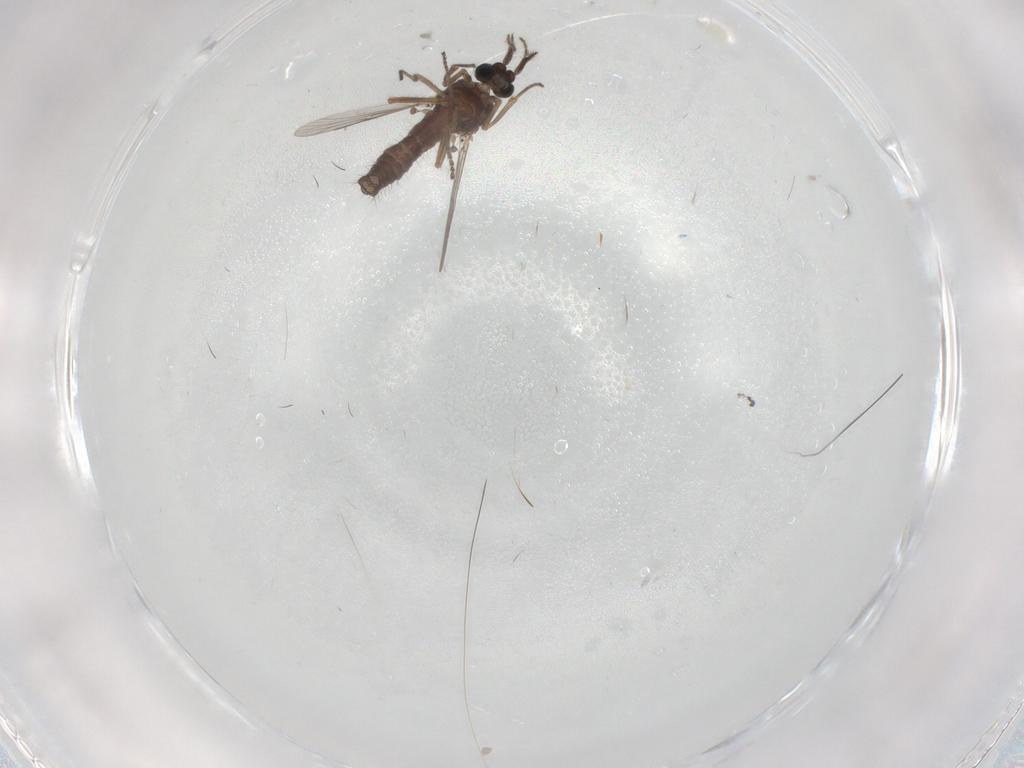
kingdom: Animalia
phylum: Arthropoda
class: Insecta
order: Diptera
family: Ceratopogonidae
